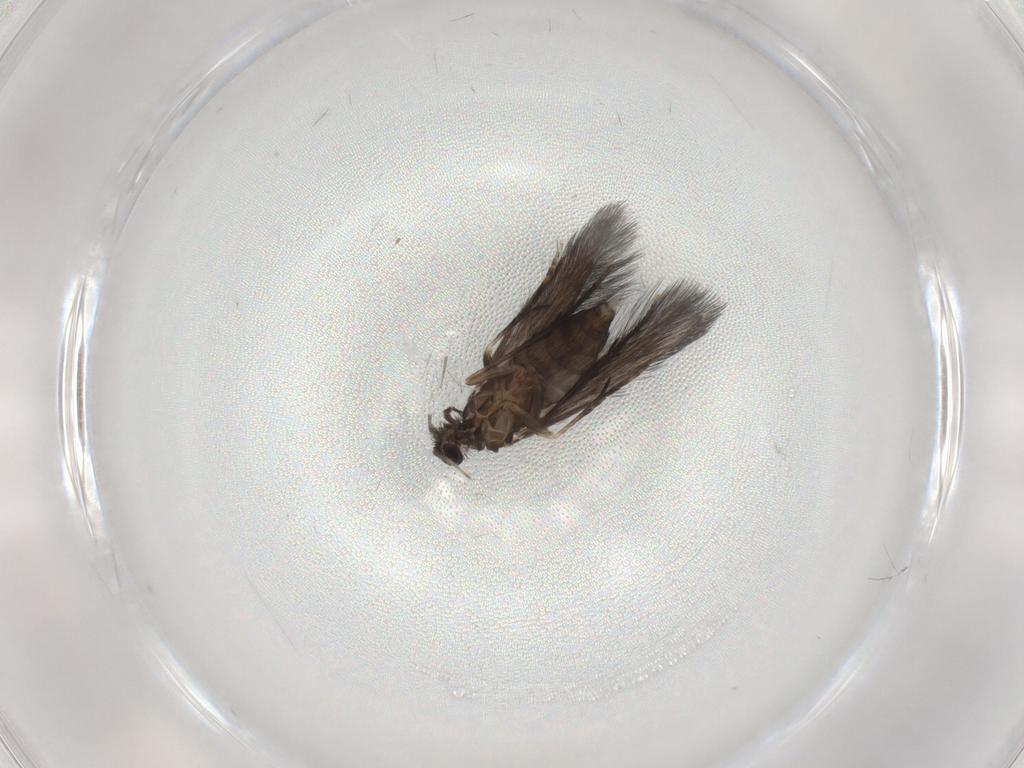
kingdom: Animalia
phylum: Arthropoda
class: Insecta
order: Trichoptera
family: Hydroptilidae
